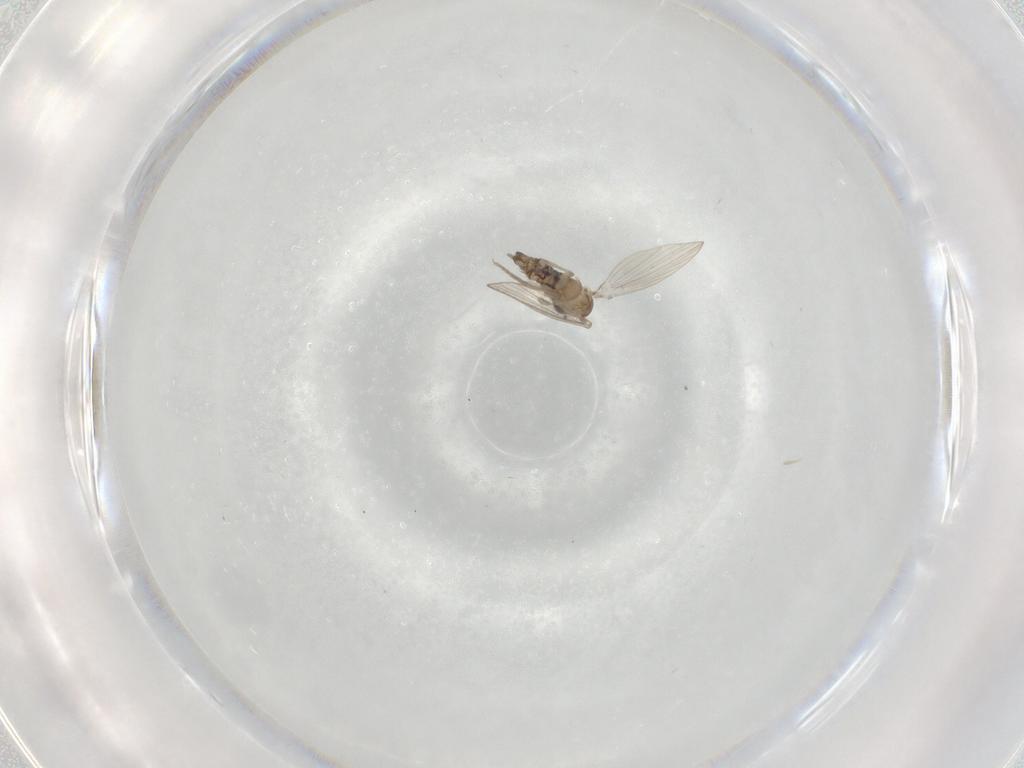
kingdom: Animalia
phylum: Arthropoda
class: Insecta
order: Diptera
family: Psychodidae
